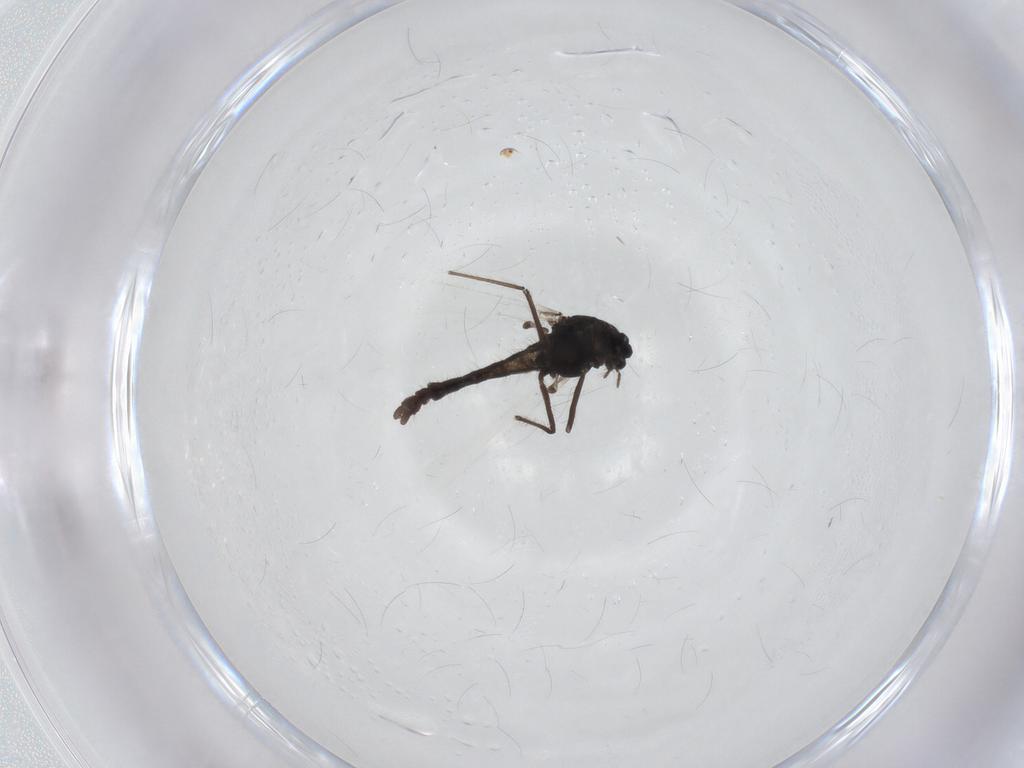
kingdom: Animalia
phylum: Arthropoda
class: Insecta
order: Diptera
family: Chironomidae
